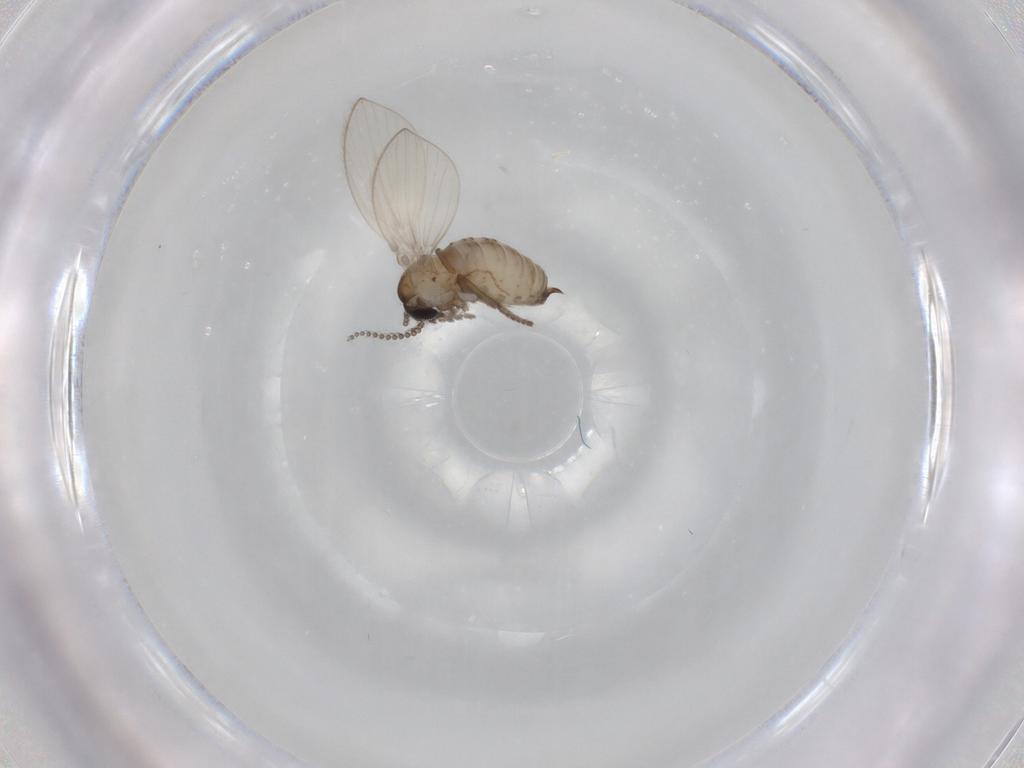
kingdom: Animalia
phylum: Arthropoda
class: Insecta
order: Diptera
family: Psychodidae
